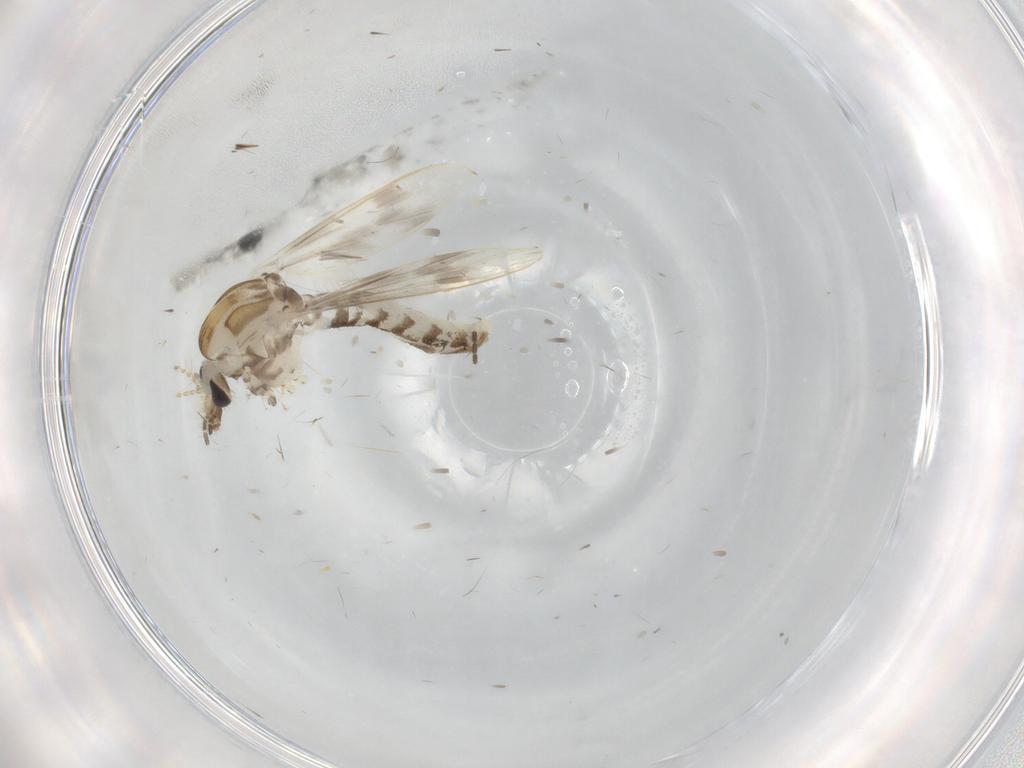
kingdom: Animalia
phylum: Arthropoda
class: Insecta
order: Diptera
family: Corethrellidae
